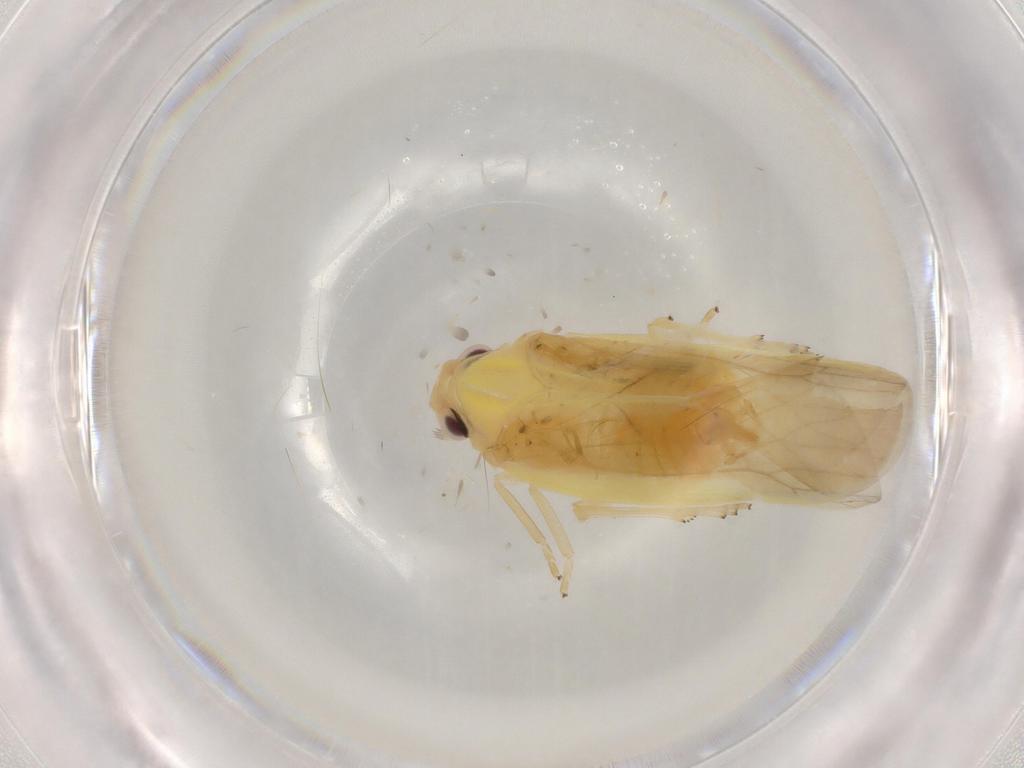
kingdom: Animalia
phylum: Arthropoda
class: Insecta
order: Hemiptera
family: Achilidae
